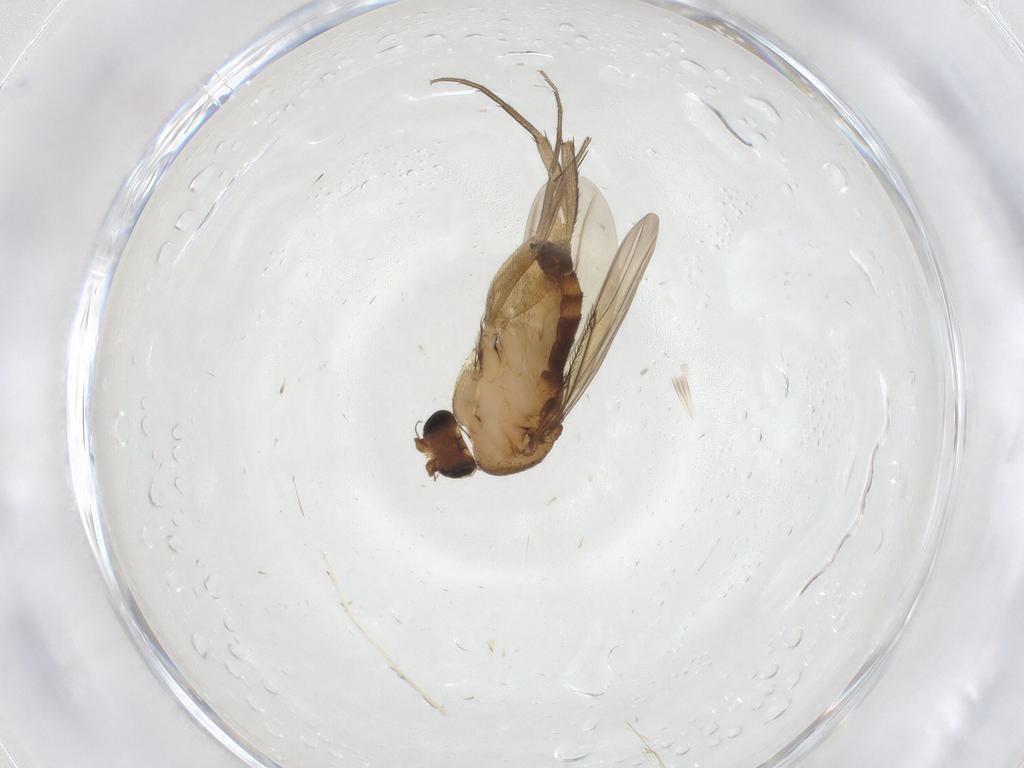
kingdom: Animalia
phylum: Arthropoda
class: Insecta
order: Diptera
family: Phoridae
